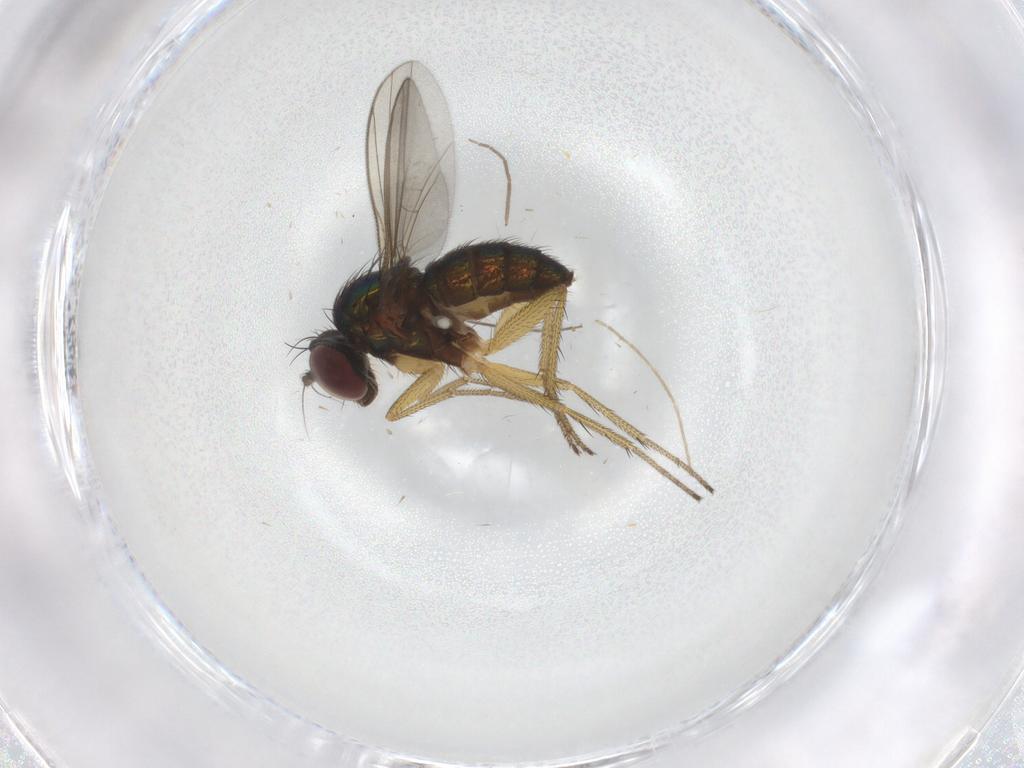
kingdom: Animalia
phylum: Arthropoda
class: Insecta
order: Diptera
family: Dolichopodidae
